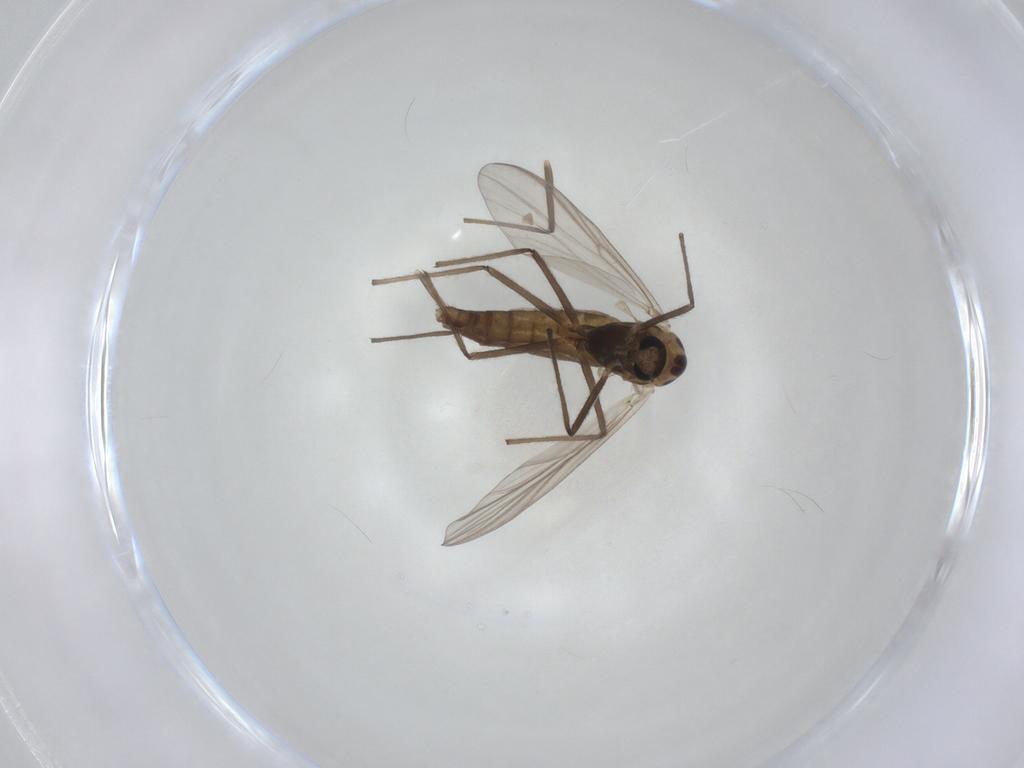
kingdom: Animalia
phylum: Arthropoda
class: Insecta
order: Diptera
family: Chironomidae
